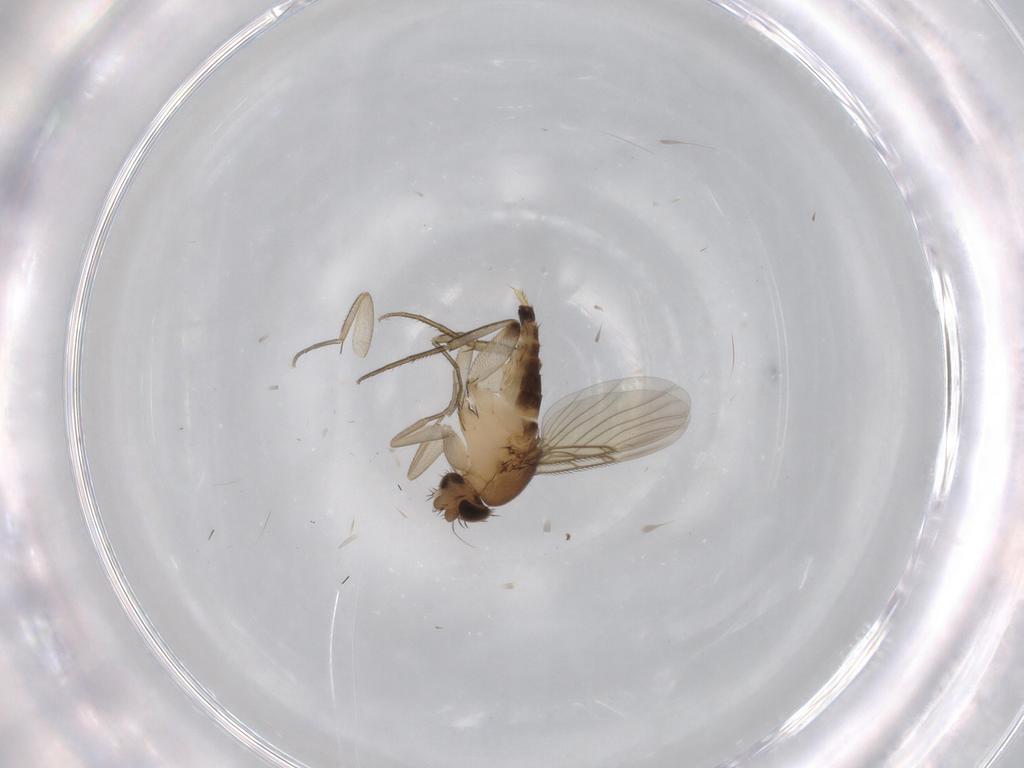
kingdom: Animalia
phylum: Arthropoda
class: Insecta
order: Diptera
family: Phoridae
